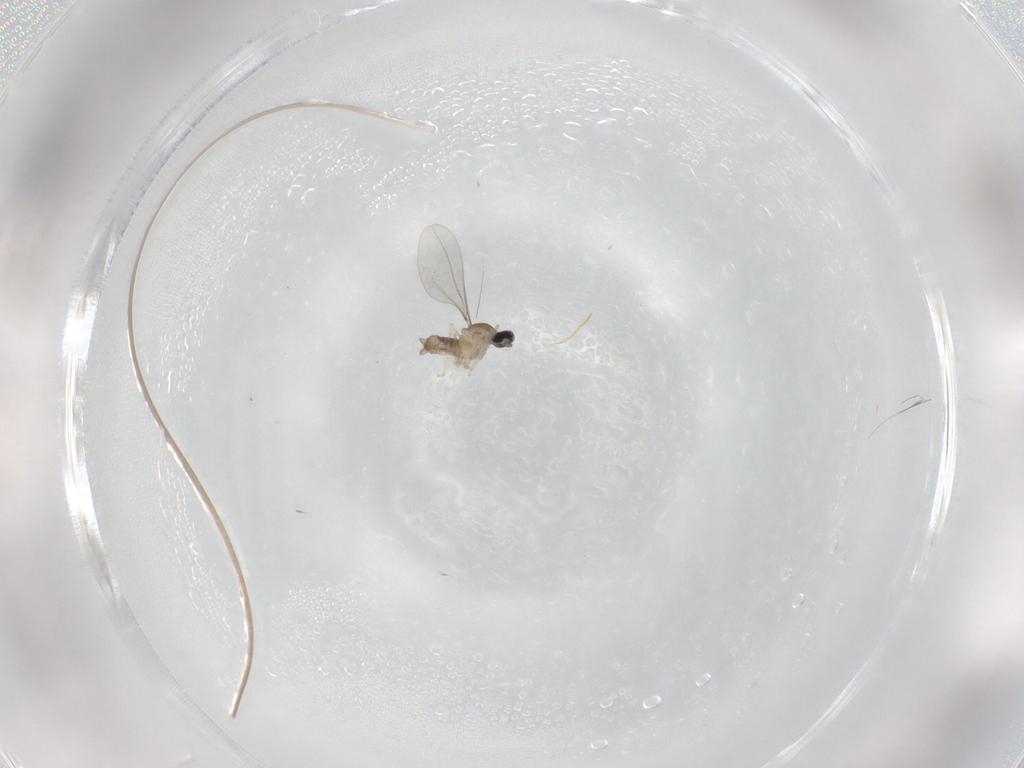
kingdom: Animalia
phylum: Arthropoda
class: Insecta
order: Diptera
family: Cecidomyiidae
